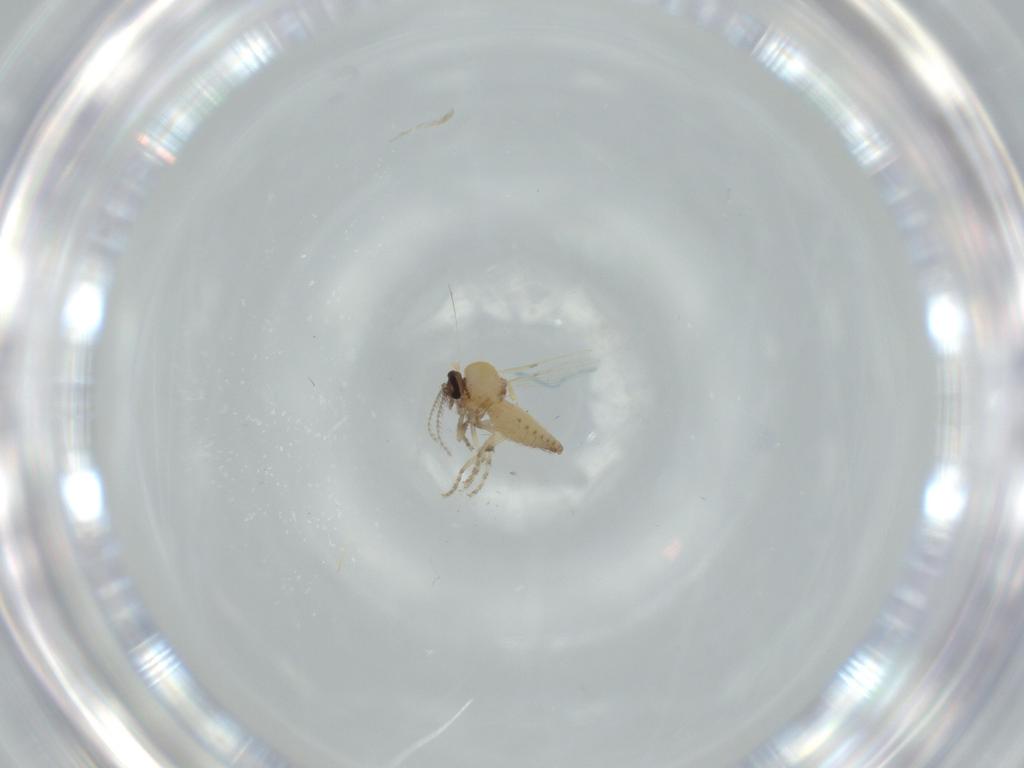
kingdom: Animalia
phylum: Arthropoda
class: Insecta
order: Diptera
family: Ceratopogonidae
